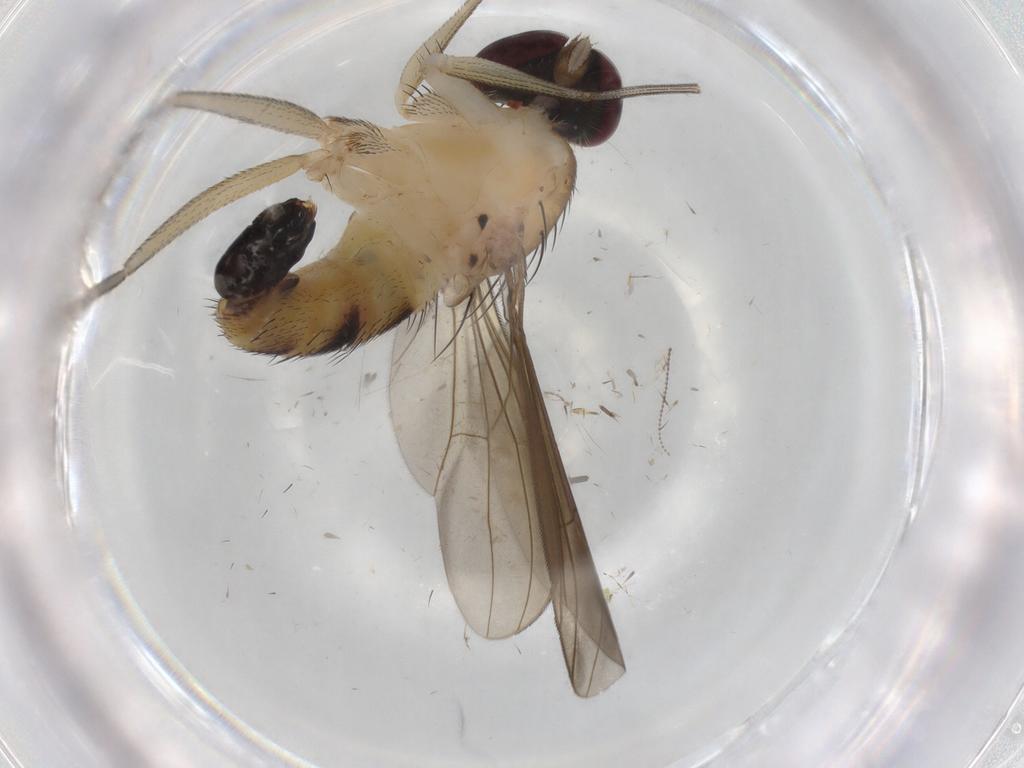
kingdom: Animalia
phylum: Arthropoda
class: Insecta
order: Diptera
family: Dolichopodidae
